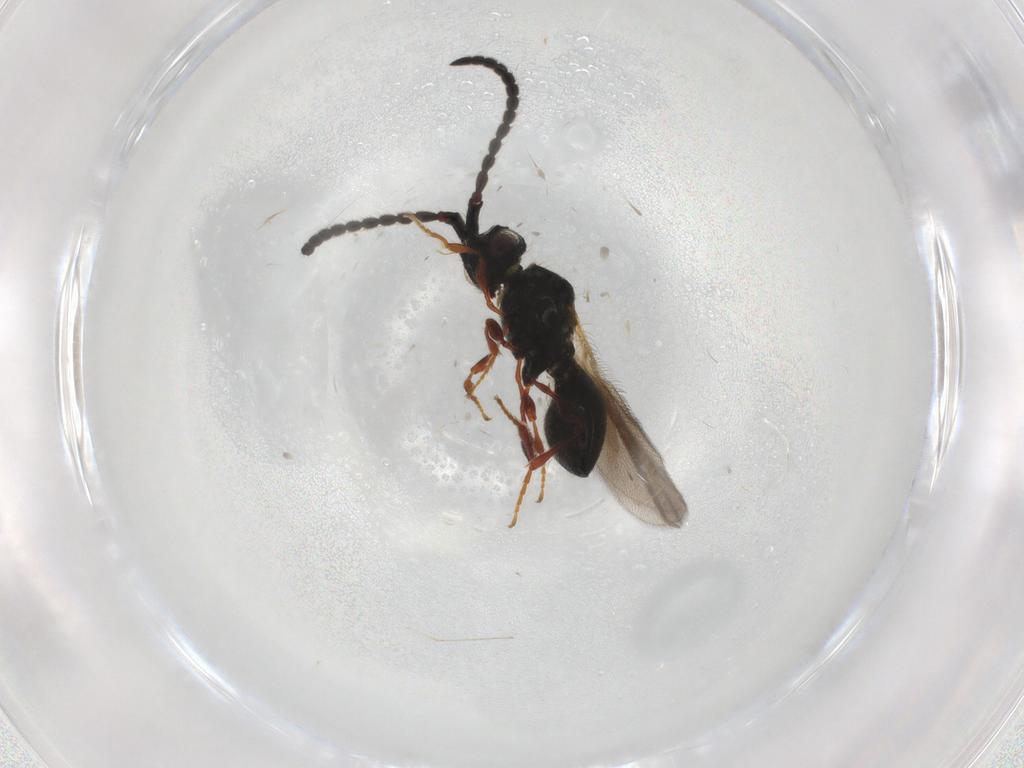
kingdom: Animalia
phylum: Arthropoda
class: Insecta
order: Hymenoptera
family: Diapriidae
